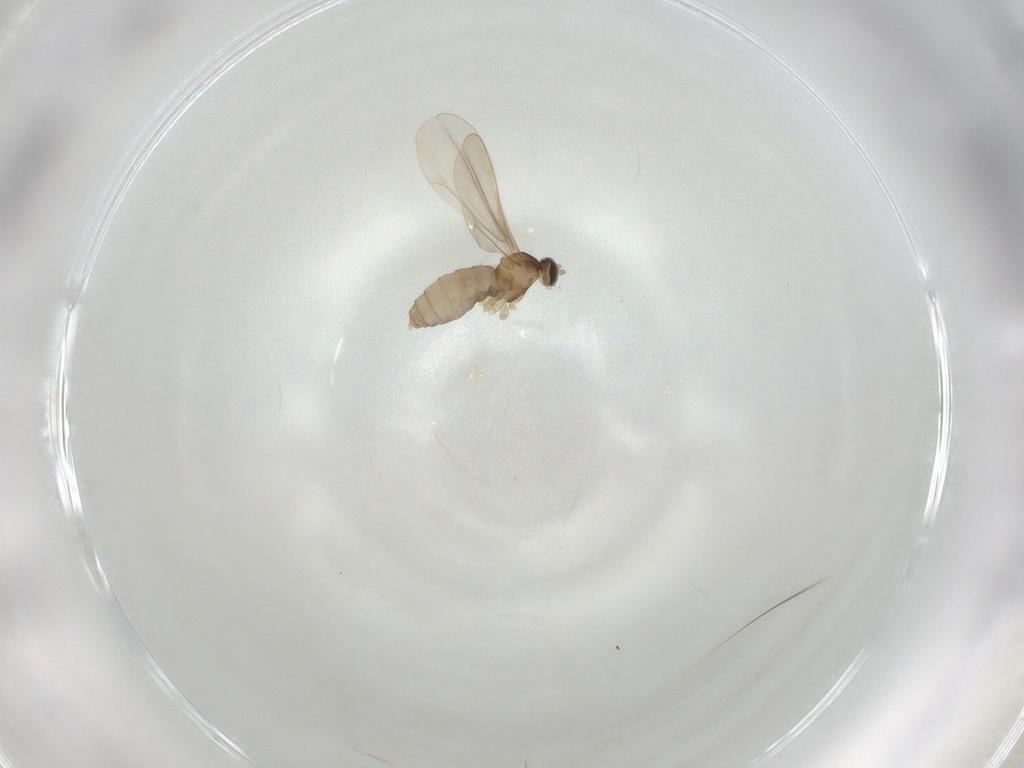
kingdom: Animalia
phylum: Arthropoda
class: Insecta
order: Diptera
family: Cecidomyiidae
